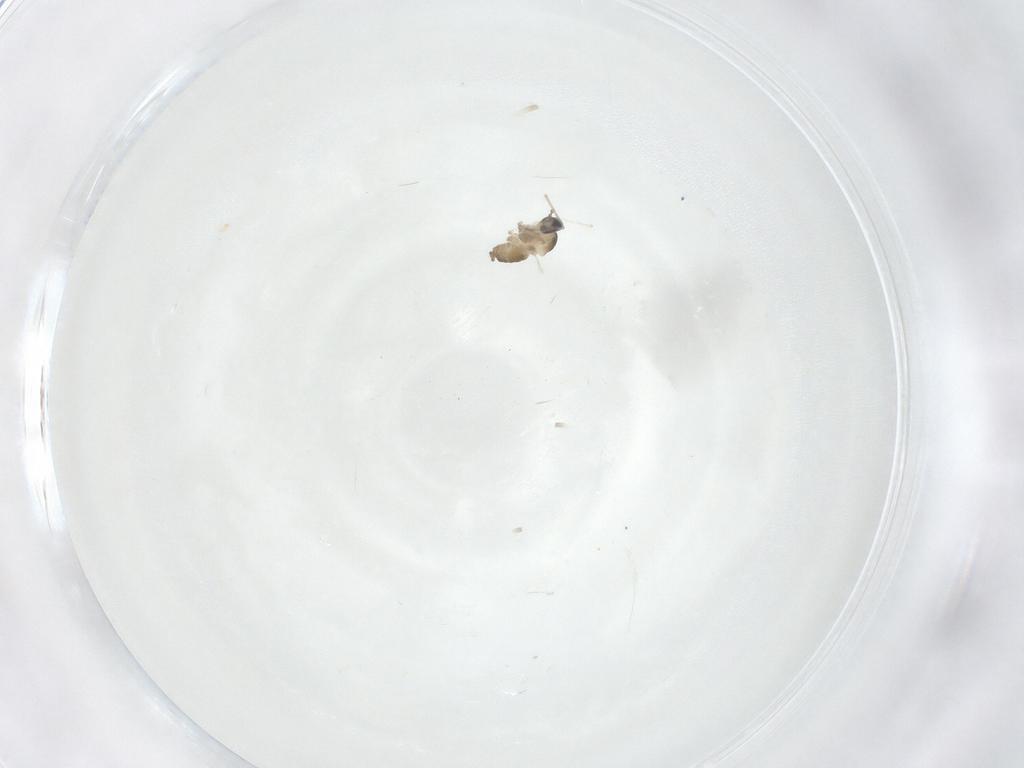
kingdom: Animalia
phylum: Arthropoda
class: Insecta
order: Diptera
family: Cecidomyiidae
